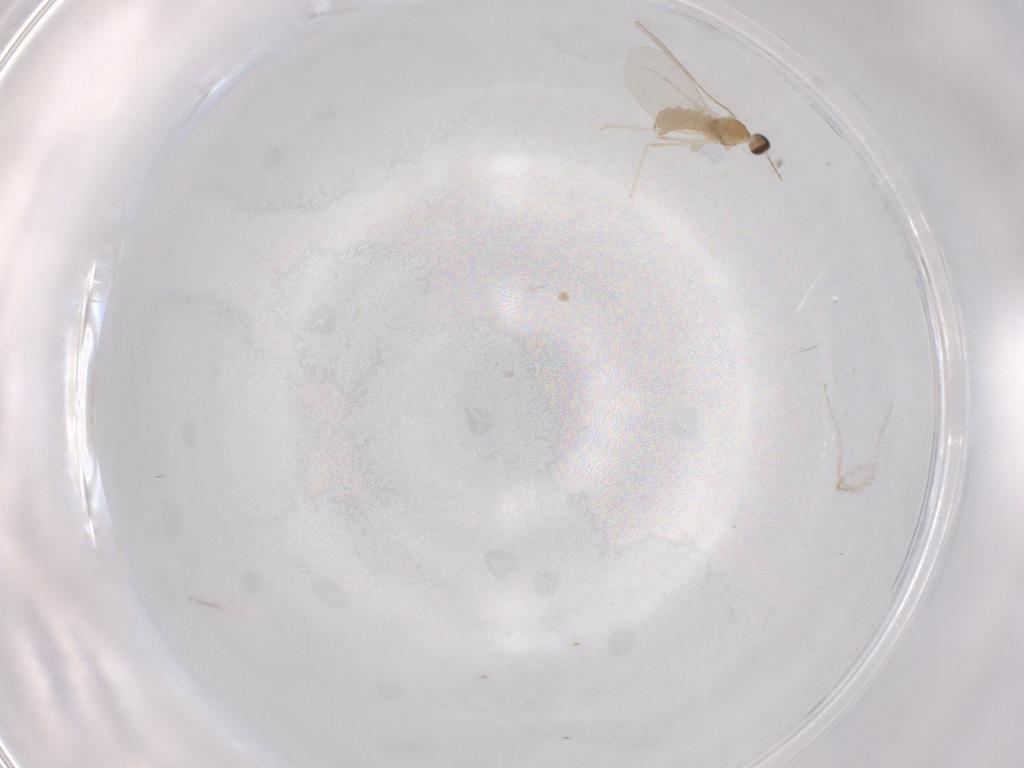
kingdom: Animalia
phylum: Arthropoda
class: Insecta
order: Diptera
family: Cecidomyiidae
